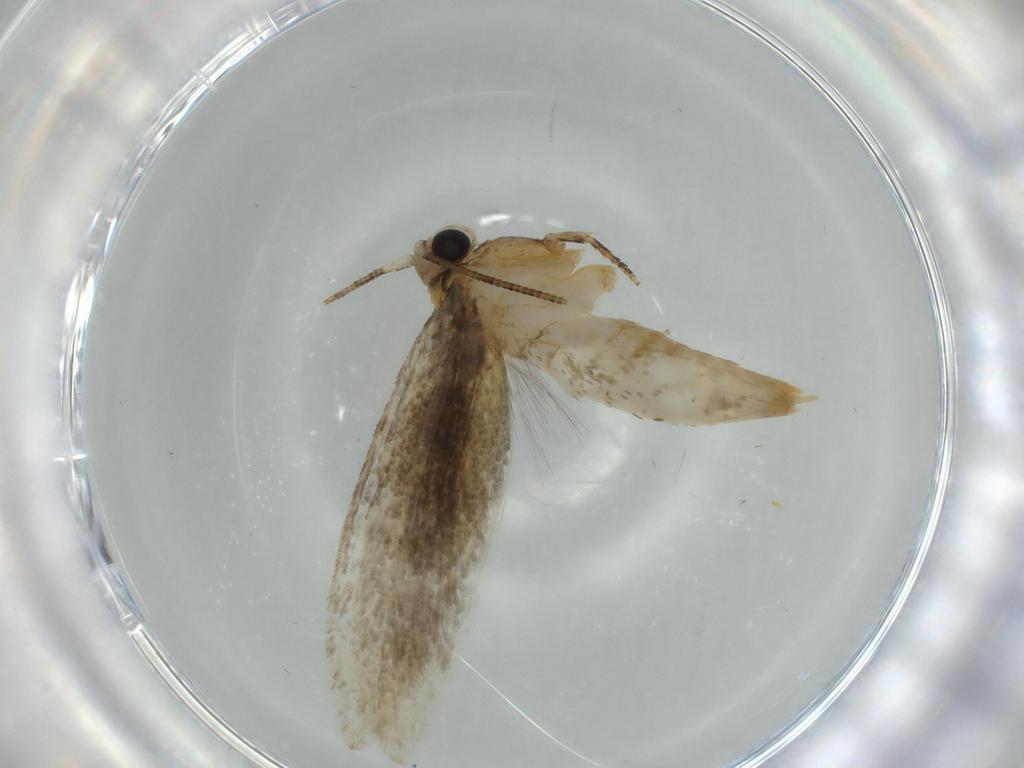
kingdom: Animalia
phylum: Arthropoda
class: Insecta
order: Lepidoptera
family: Tineidae
